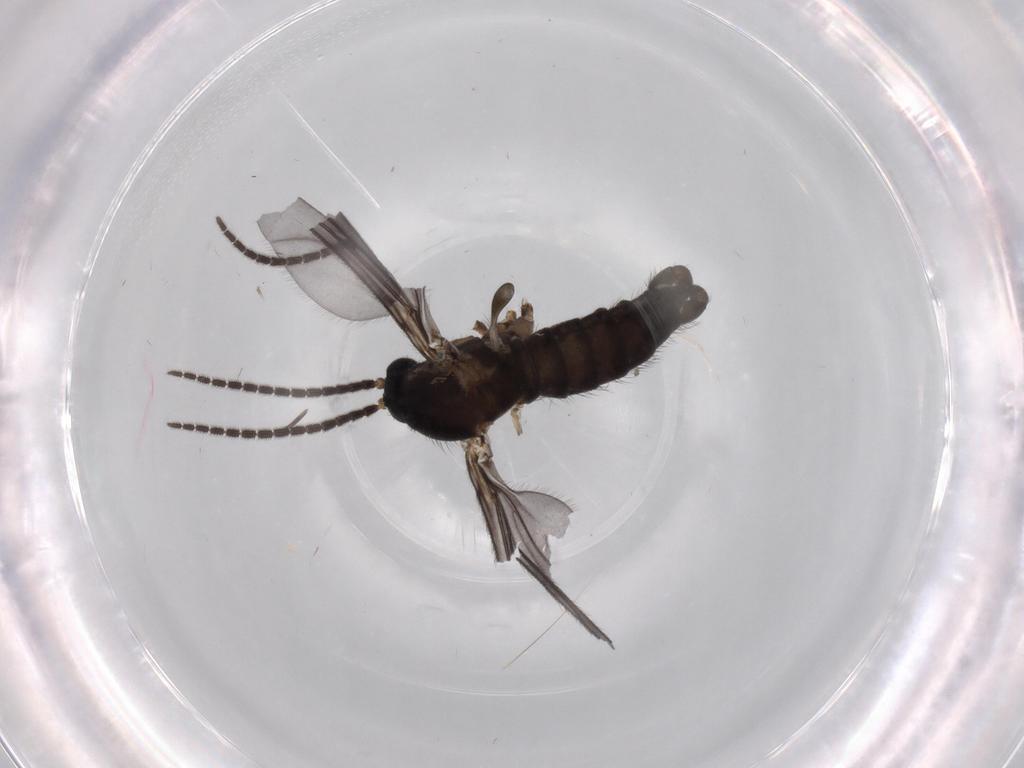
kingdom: Animalia
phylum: Arthropoda
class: Insecta
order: Diptera
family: Sciaridae
